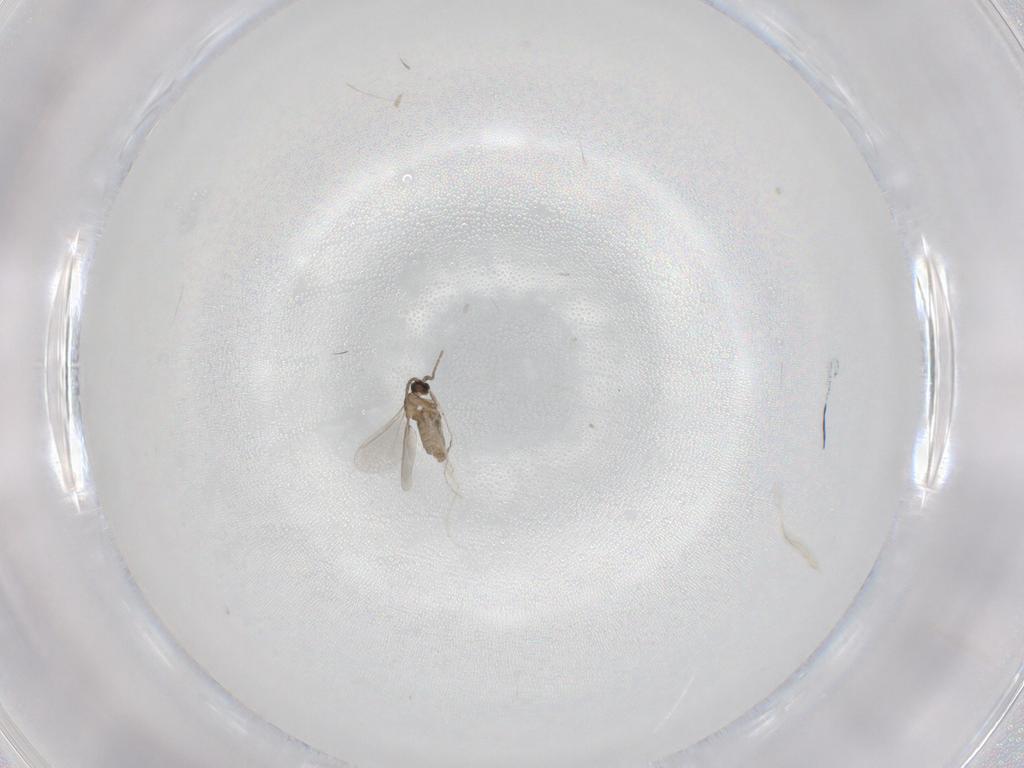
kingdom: Animalia
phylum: Arthropoda
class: Insecta
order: Diptera
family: Cecidomyiidae
